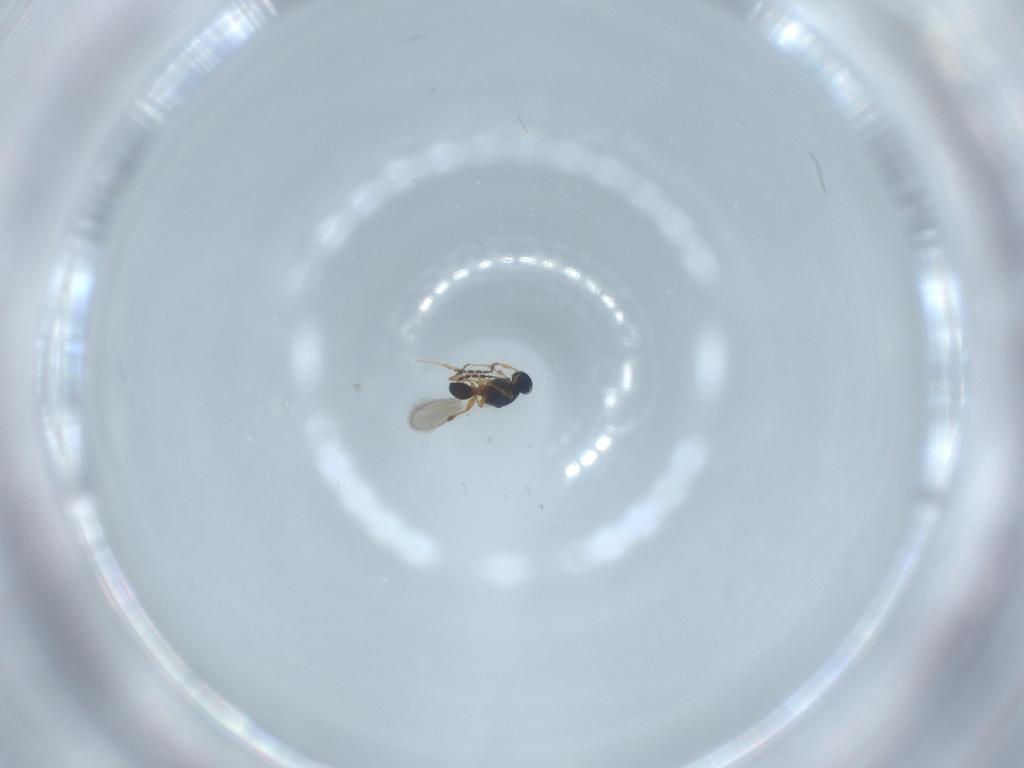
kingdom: Animalia
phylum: Arthropoda
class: Insecta
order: Hymenoptera
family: Platygastridae
